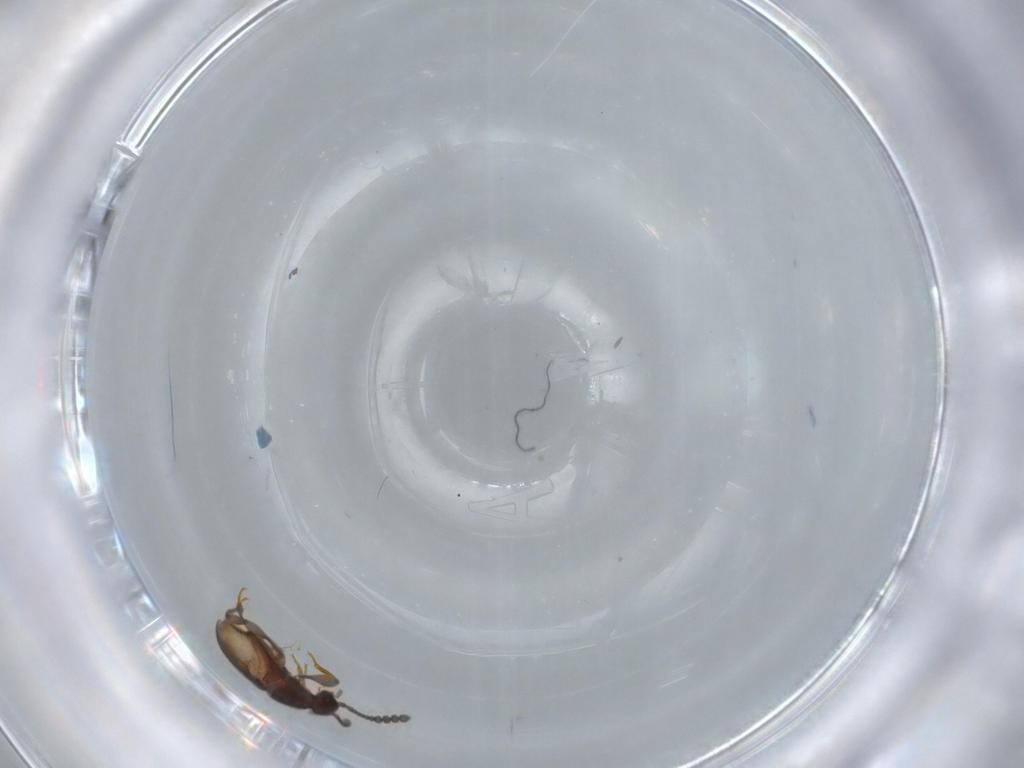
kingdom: Animalia
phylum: Arthropoda
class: Insecta
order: Coleoptera
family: Staphylinidae
